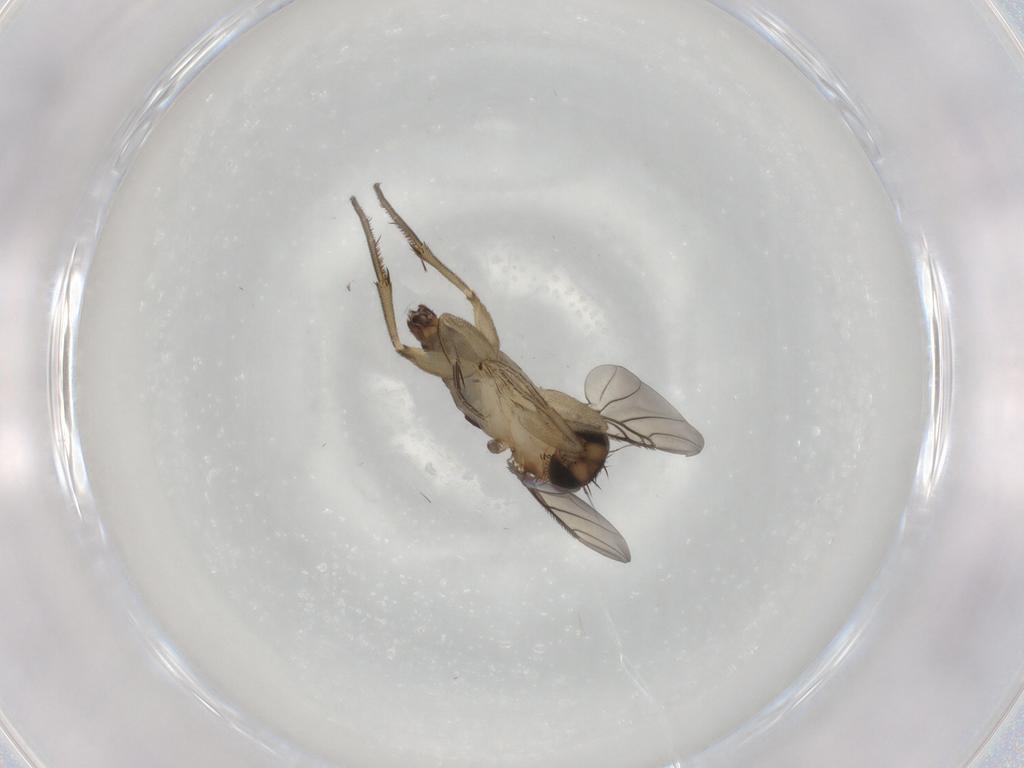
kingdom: Animalia
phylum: Arthropoda
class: Insecta
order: Diptera
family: Phoridae
